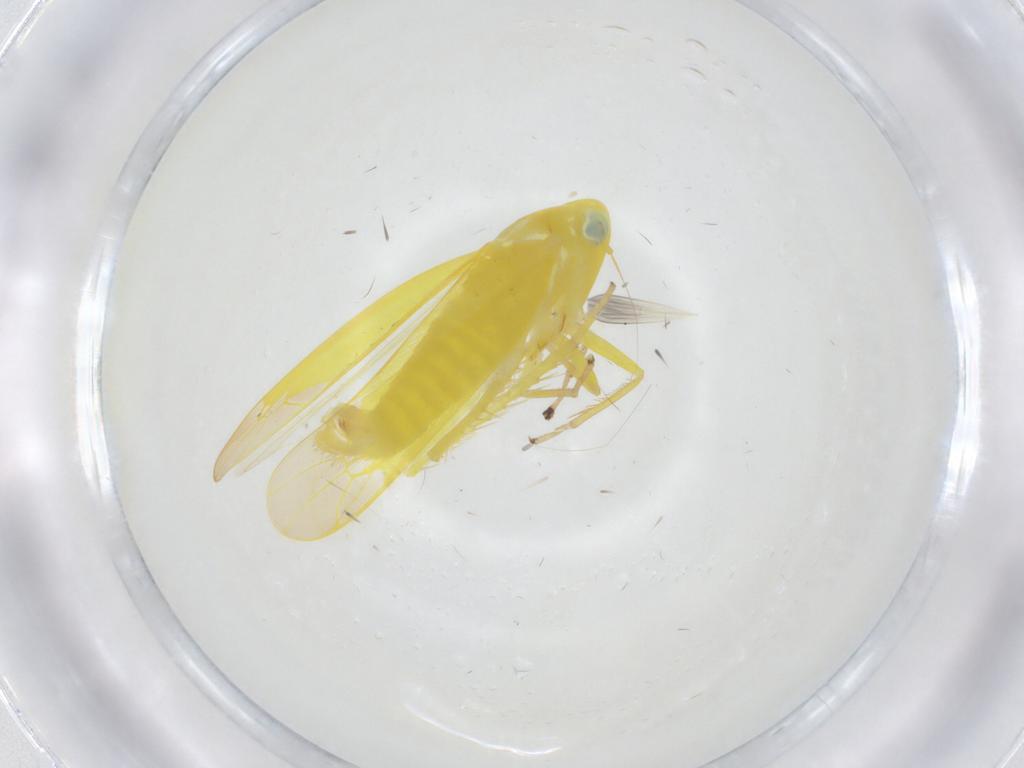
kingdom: Animalia
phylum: Arthropoda
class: Insecta
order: Hemiptera
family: Cicadellidae
